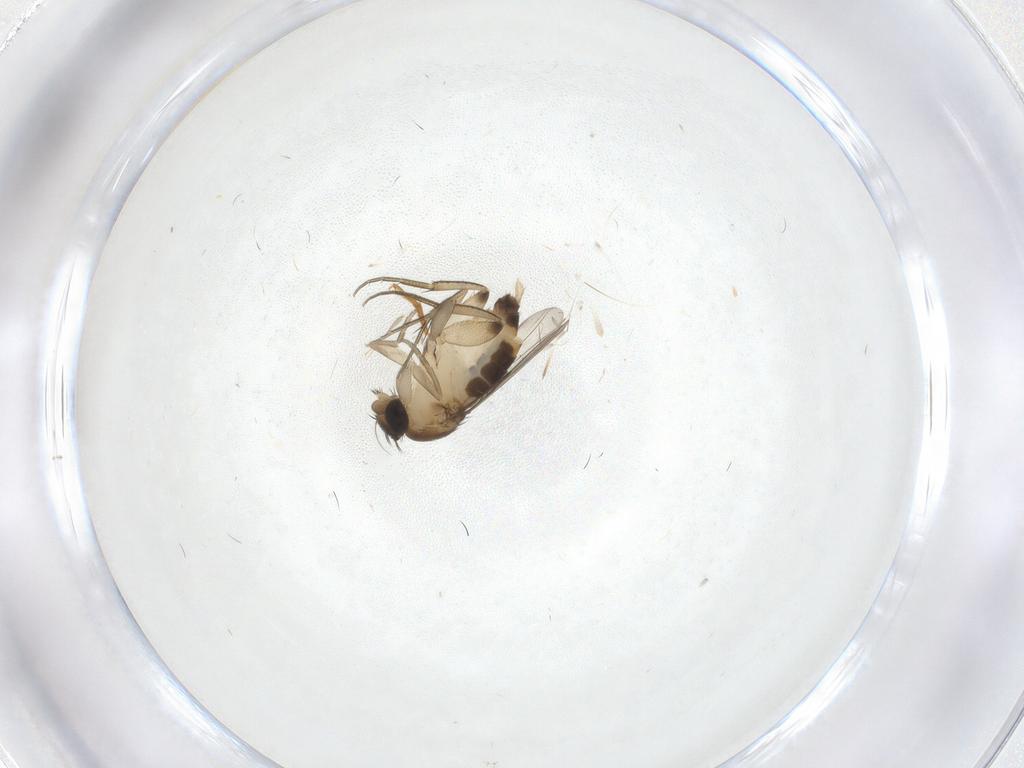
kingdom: Animalia
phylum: Arthropoda
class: Insecta
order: Diptera
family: Phoridae
